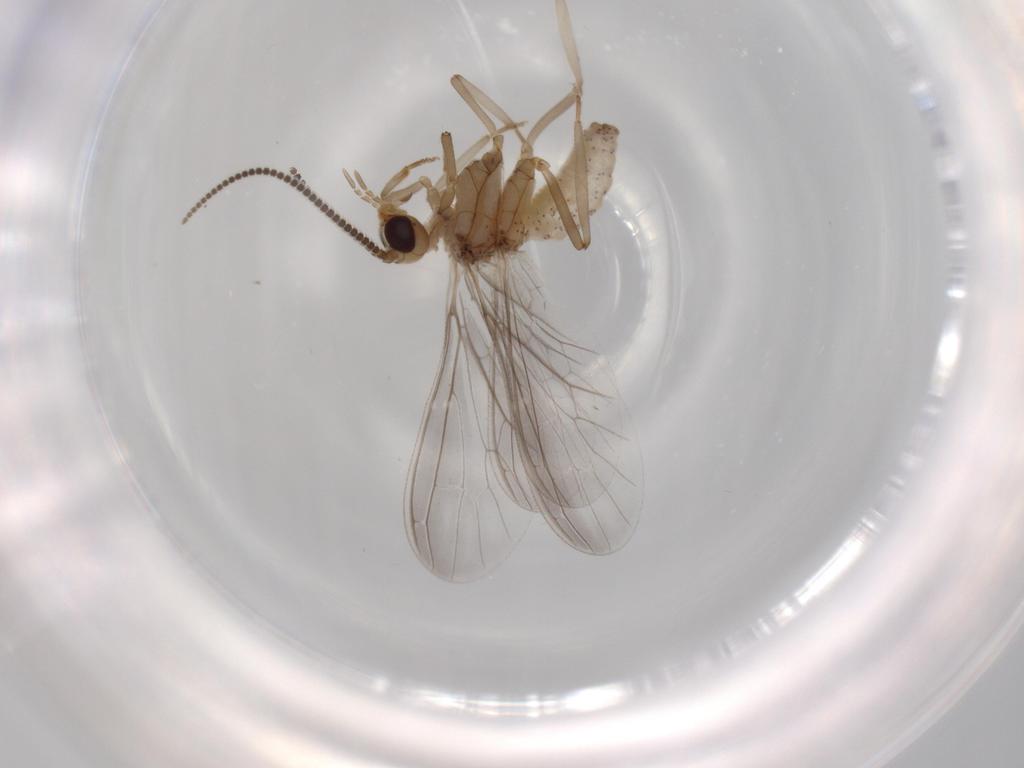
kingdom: Animalia
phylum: Arthropoda
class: Insecta
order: Neuroptera
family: Coniopterygidae
